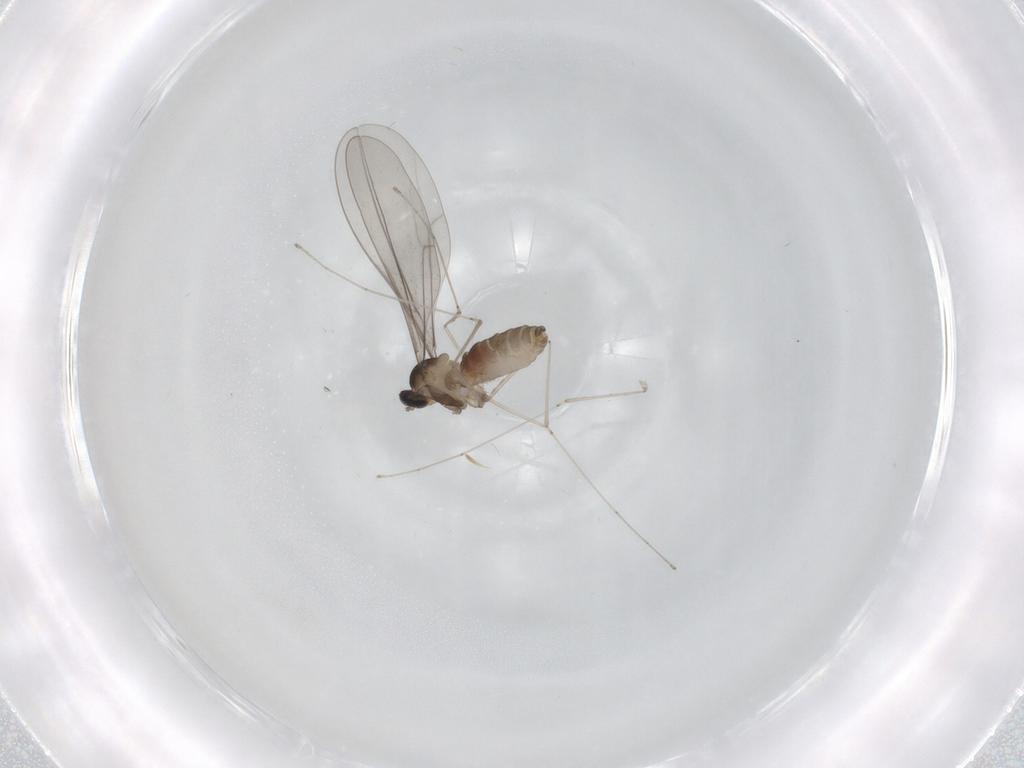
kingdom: Animalia
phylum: Arthropoda
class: Insecta
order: Diptera
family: Cecidomyiidae
